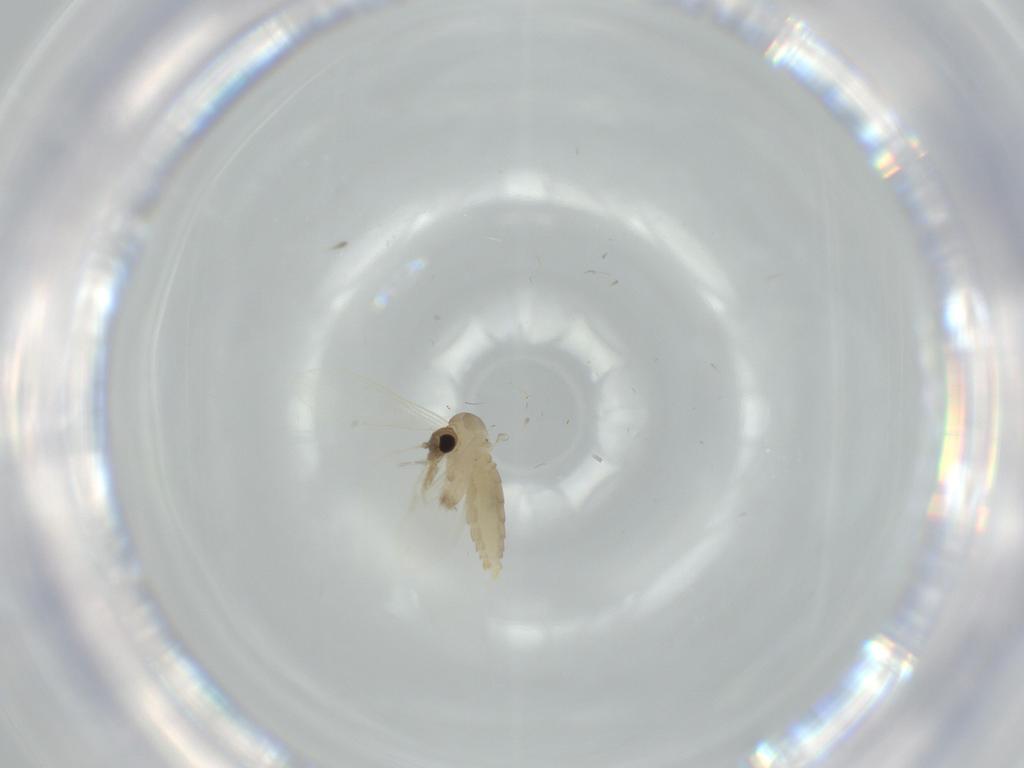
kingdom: Animalia
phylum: Arthropoda
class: Insecta
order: Diptera
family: Psychodidae
